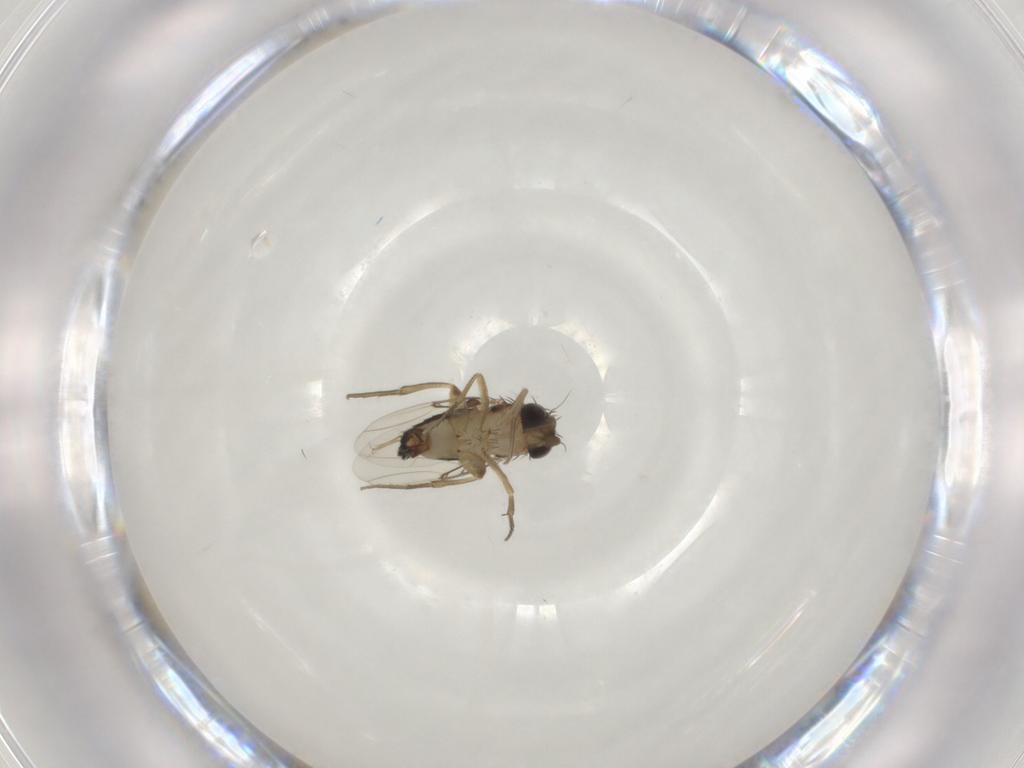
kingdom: Animalia
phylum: Arthropoda
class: Insecta
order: Diptera
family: Phoridae
